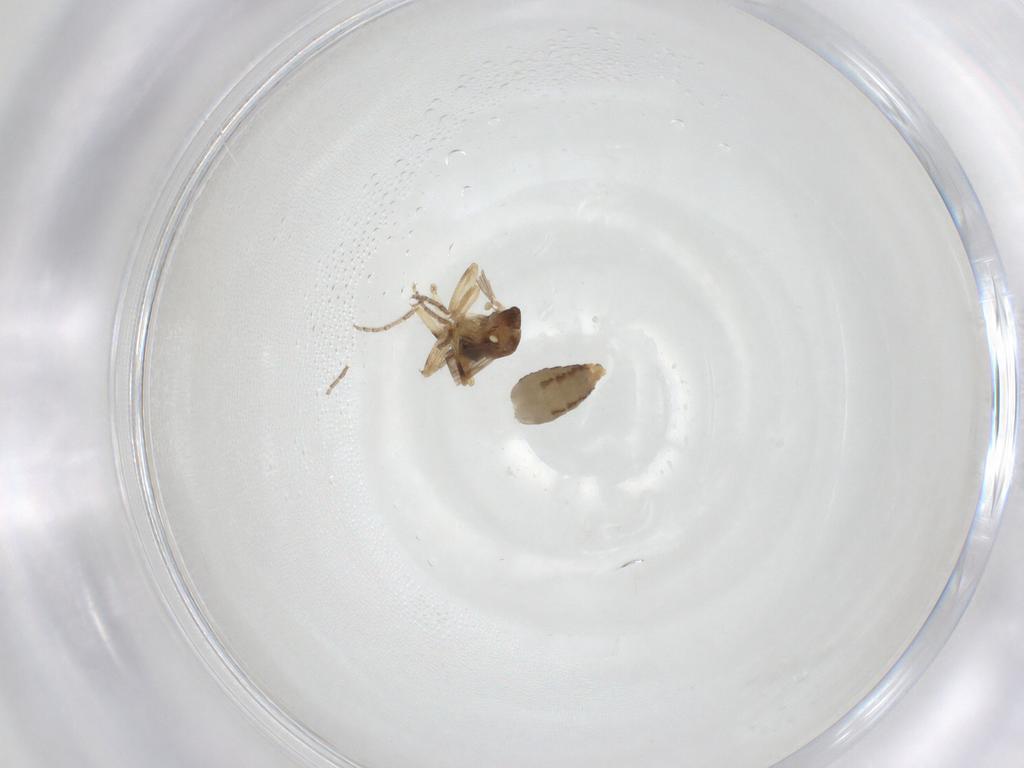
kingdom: Animalia
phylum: Arthropoda
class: Insecta
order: Diptera
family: Ceratopogonidae
